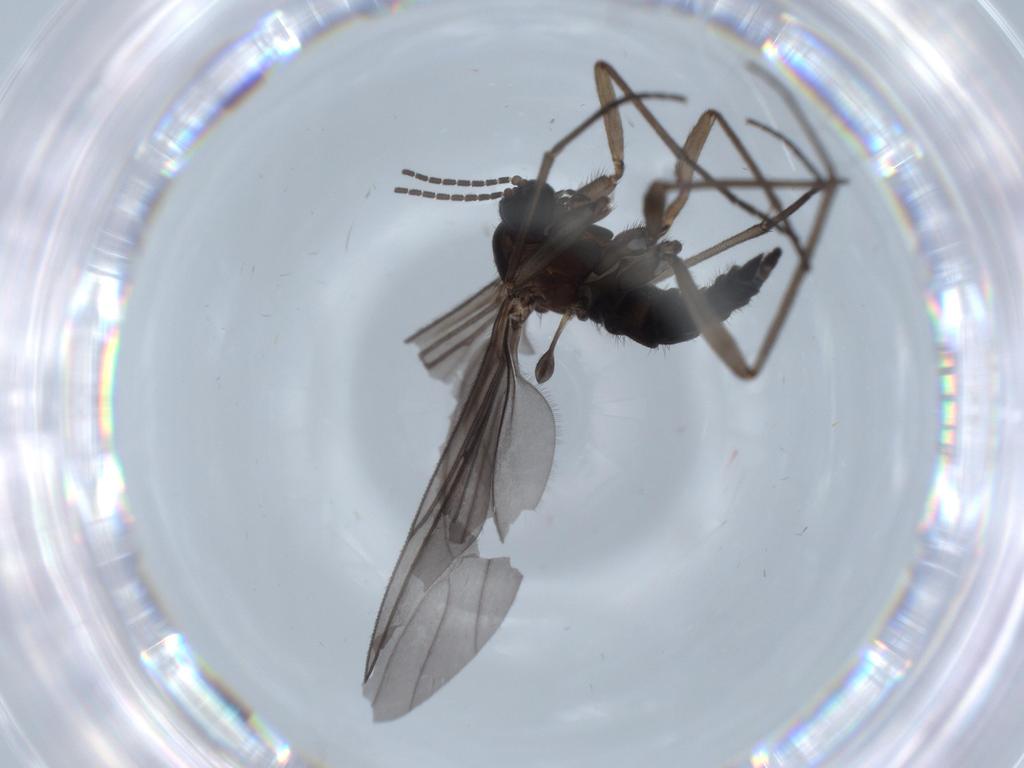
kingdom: Animalia
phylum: Arthropoda
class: Insecta
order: Diptera
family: Sciaridae
